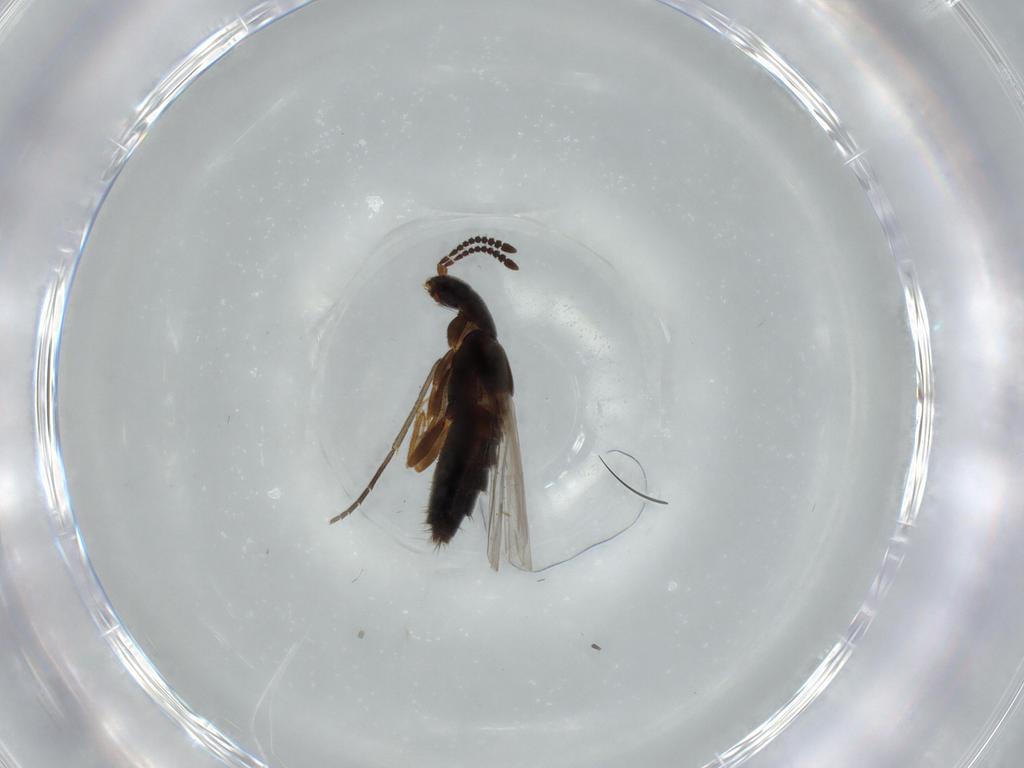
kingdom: Animalia
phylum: Arthropoda
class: Insecta
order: Coleoptera
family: Staphylinidae
